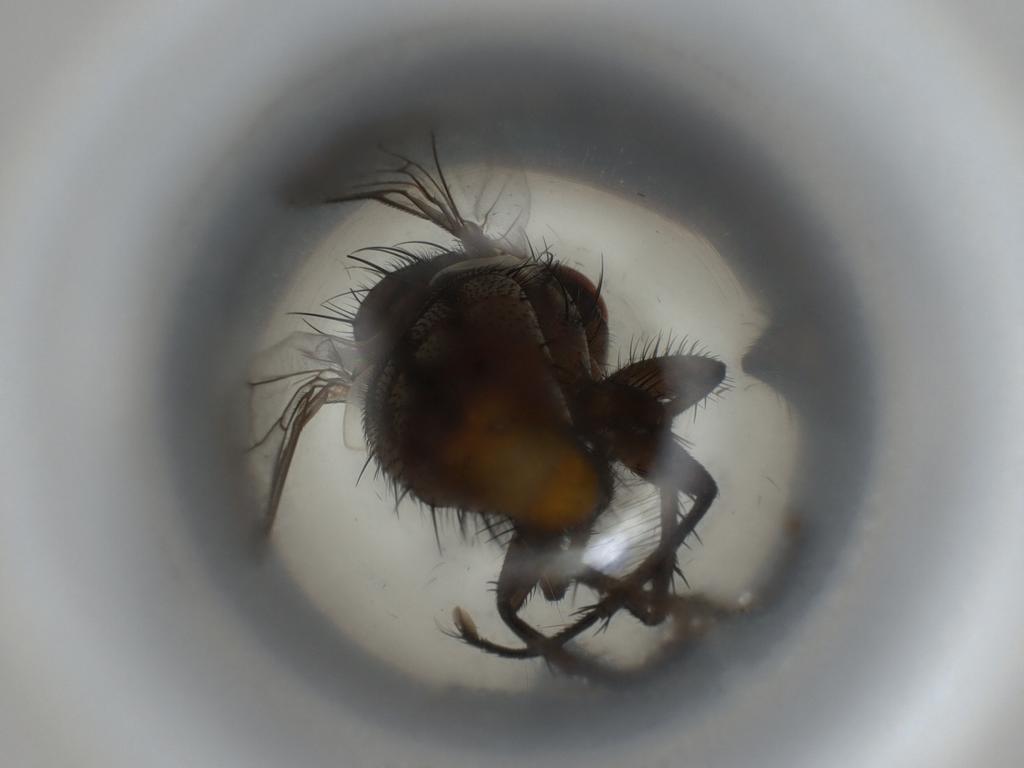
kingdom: Animalia
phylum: Arthropoda
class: Insecta
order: Diptera
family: Sarcophagidae
